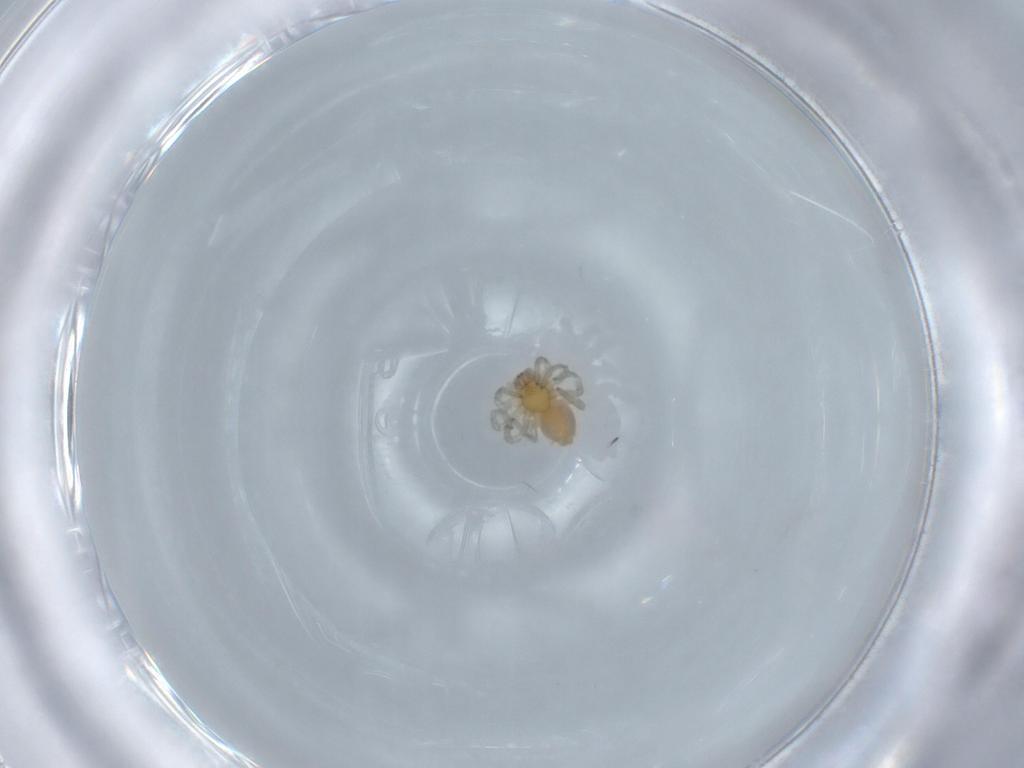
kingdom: Animalia
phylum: Arthropoda
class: Arachnida
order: Araneae
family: Dictynidae
